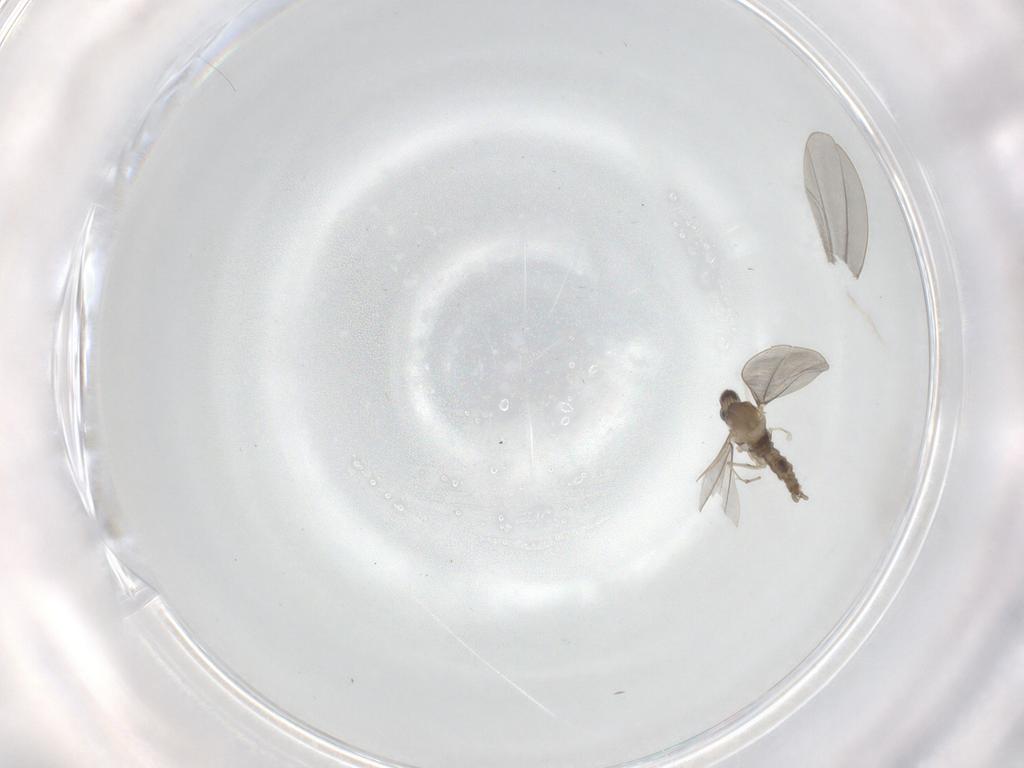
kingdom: Animalia
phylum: Arthropoda
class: Insecta
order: Diptera
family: Cecidomyiidae
